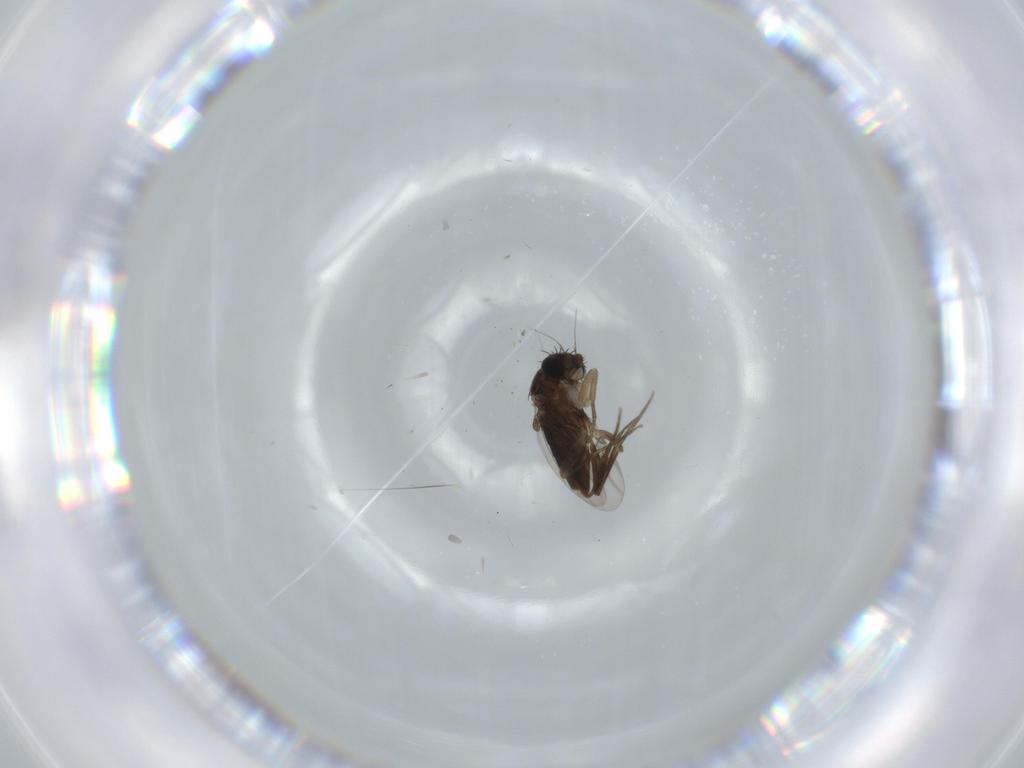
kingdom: Animalia
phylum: Arthropoda
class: Insecta
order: Diptera
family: Phoridae
